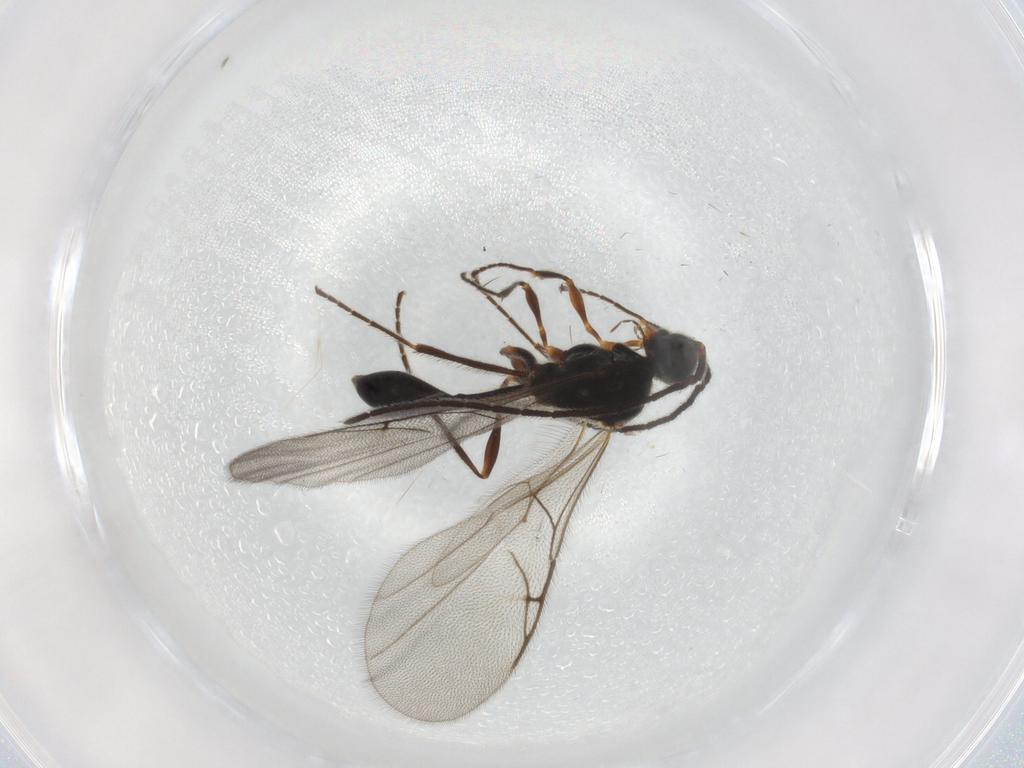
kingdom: Animalia
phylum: Arthropoda
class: Insecta
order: Hymenoptera
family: Diapriidae
